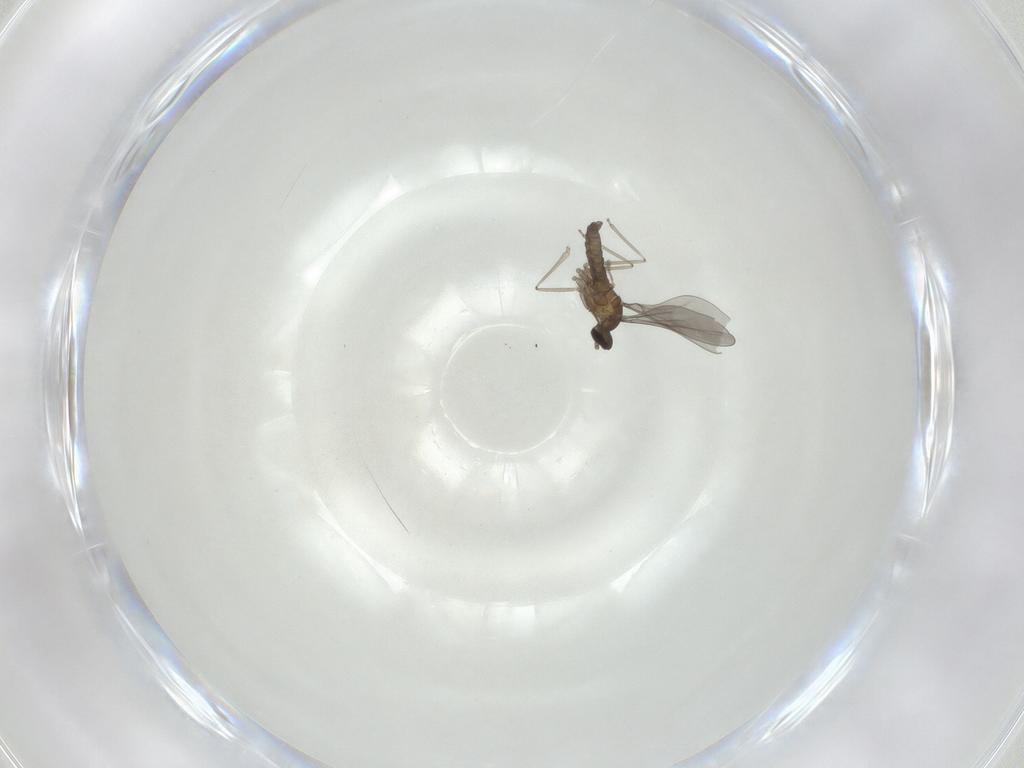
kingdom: Animalia
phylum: Arthropoda
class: Insecta
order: Diptera
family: Cecidomyiidae
